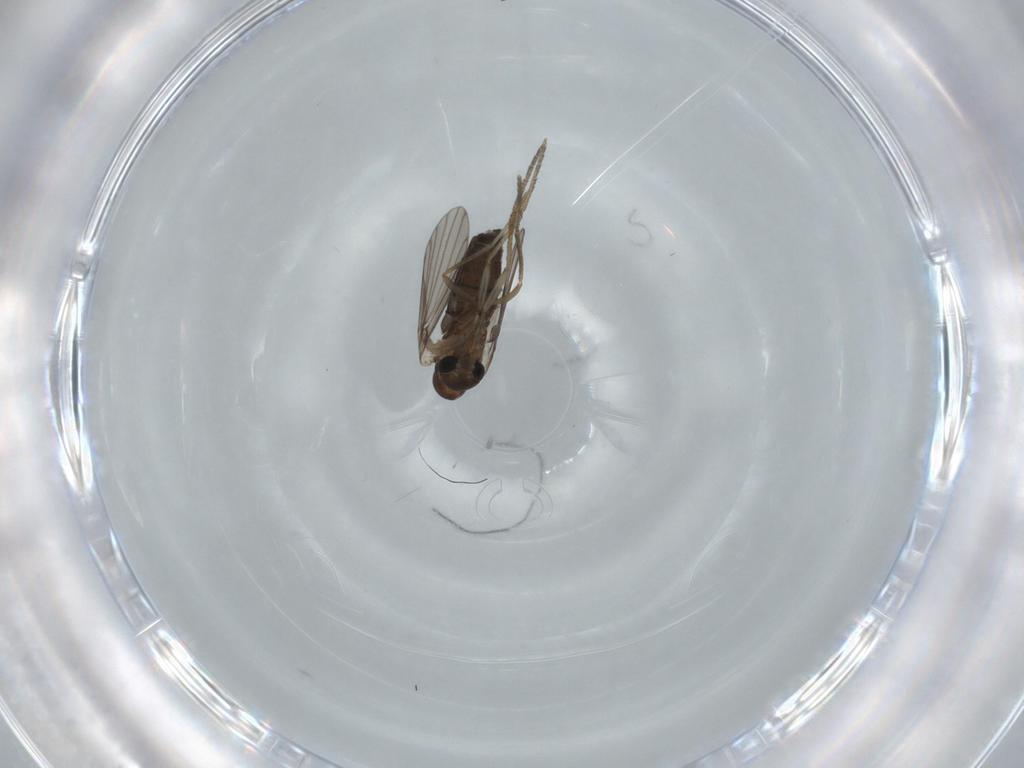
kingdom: Animalia
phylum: Arthropoda
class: Insecta
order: Diptera
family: Psychodidae
